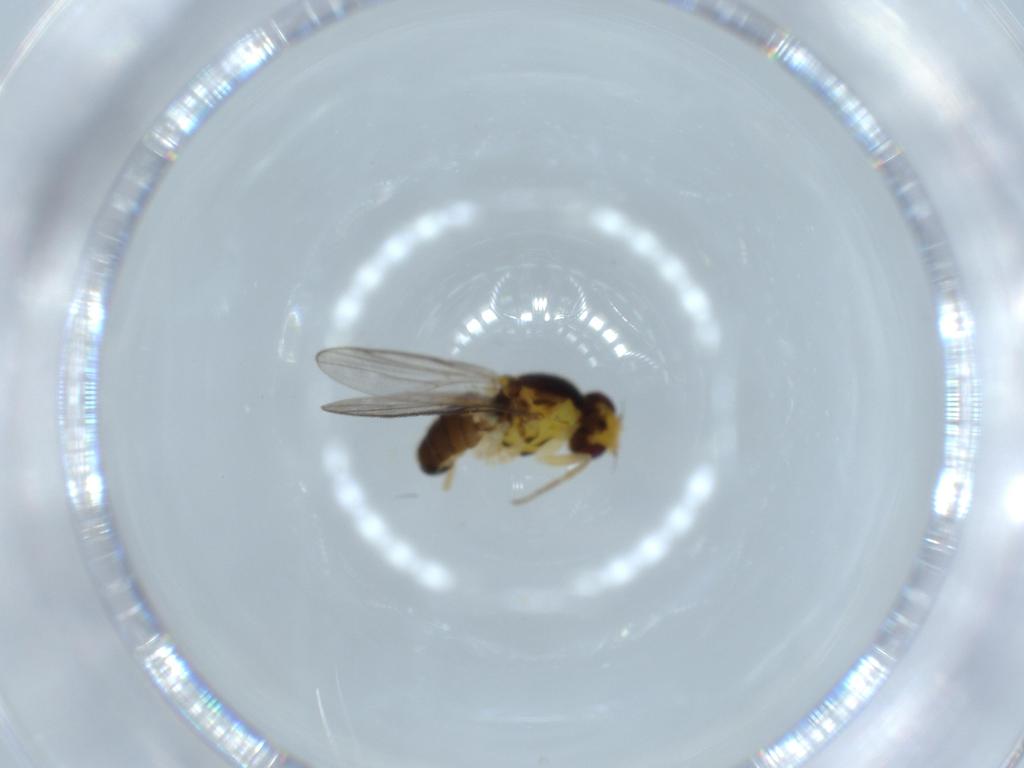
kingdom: Animalia
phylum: Arthropoda
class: Insecta
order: Diptera
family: Chloropidae
